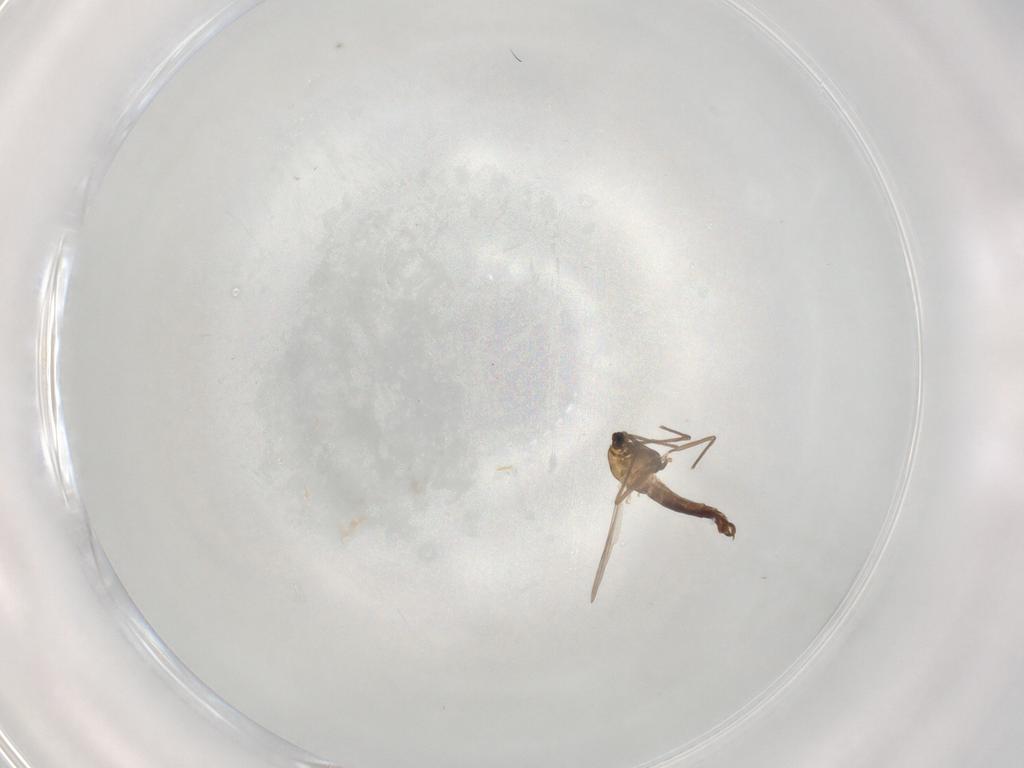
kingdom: Animalia
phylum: Arthropoda
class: Insecta
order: Diptera
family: Chironomidae
